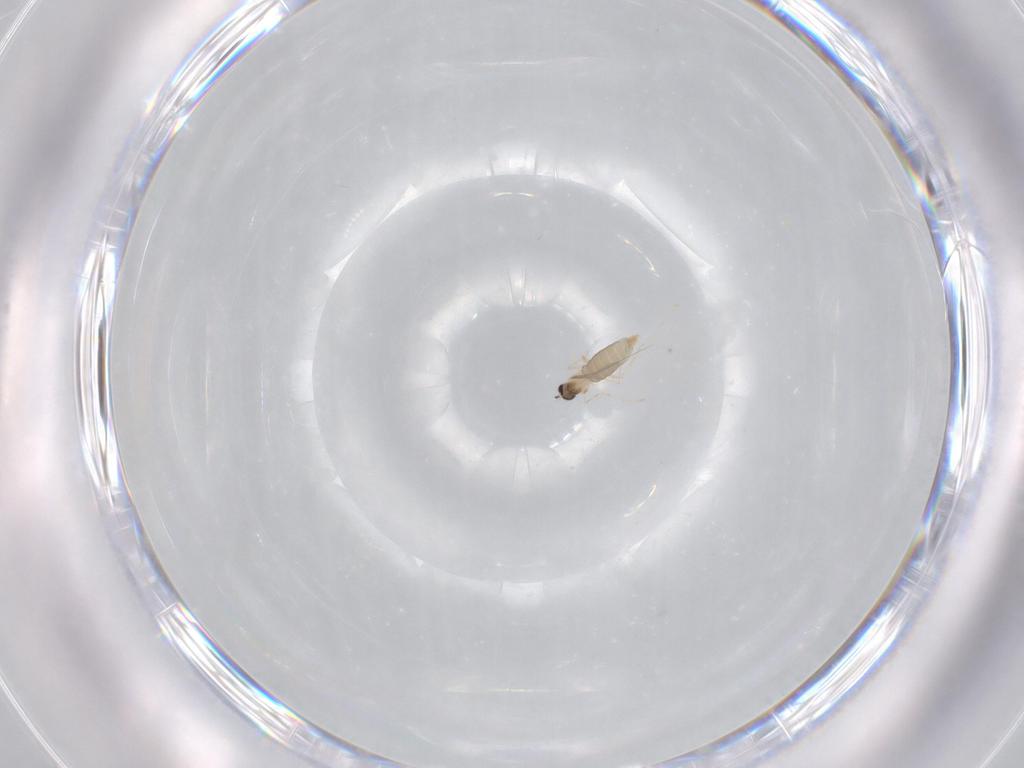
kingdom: Animalia
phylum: Arthropoda
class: Insecta
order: Diptera
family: Cecidomyiidae
